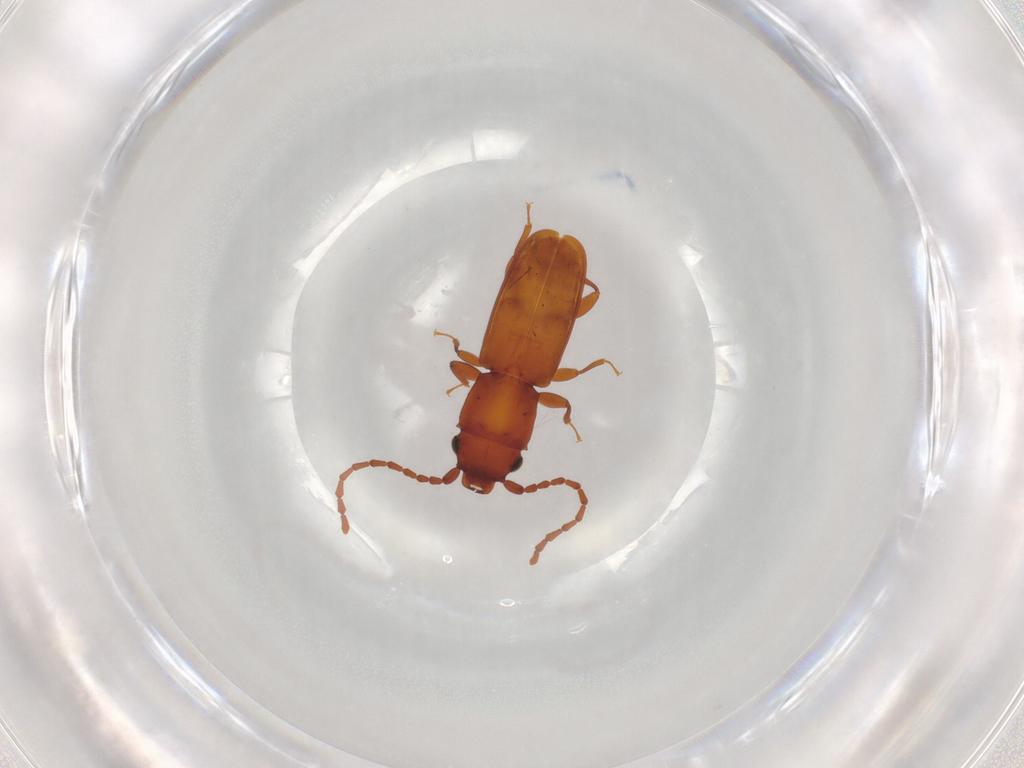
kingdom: Animalia
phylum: Arthropoda
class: Insecta
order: Coleoptera
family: Laemophloeidae
